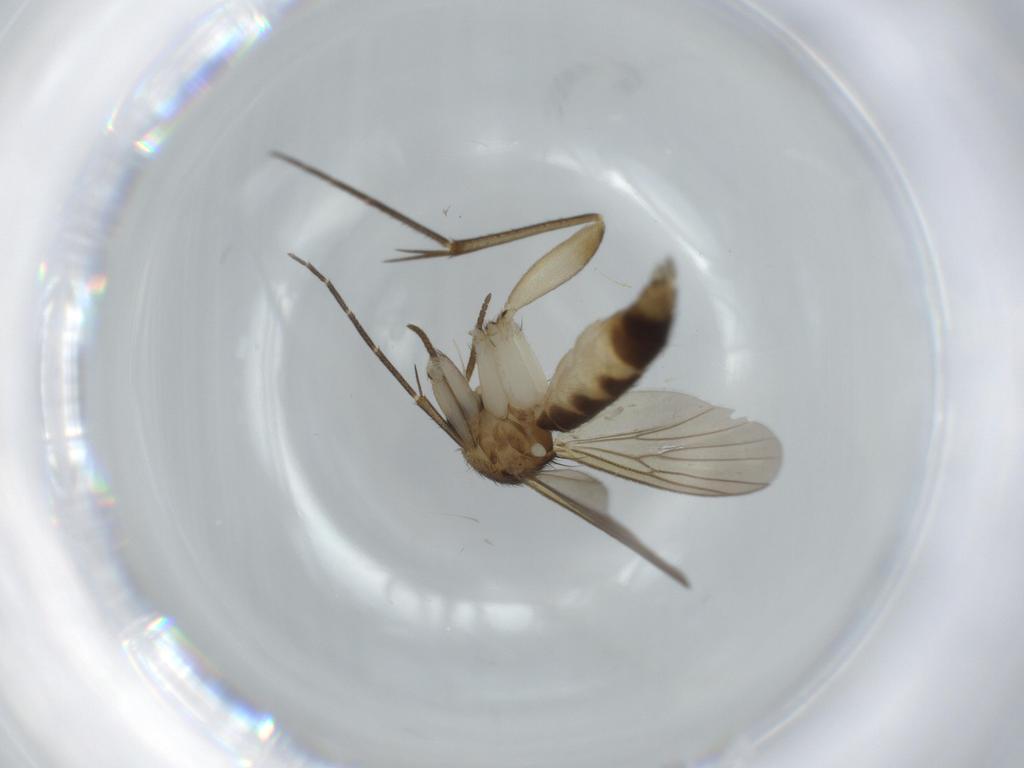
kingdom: Animalia
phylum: Arthropoda
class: Insecta
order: Diptera
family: Mycetophilidae
